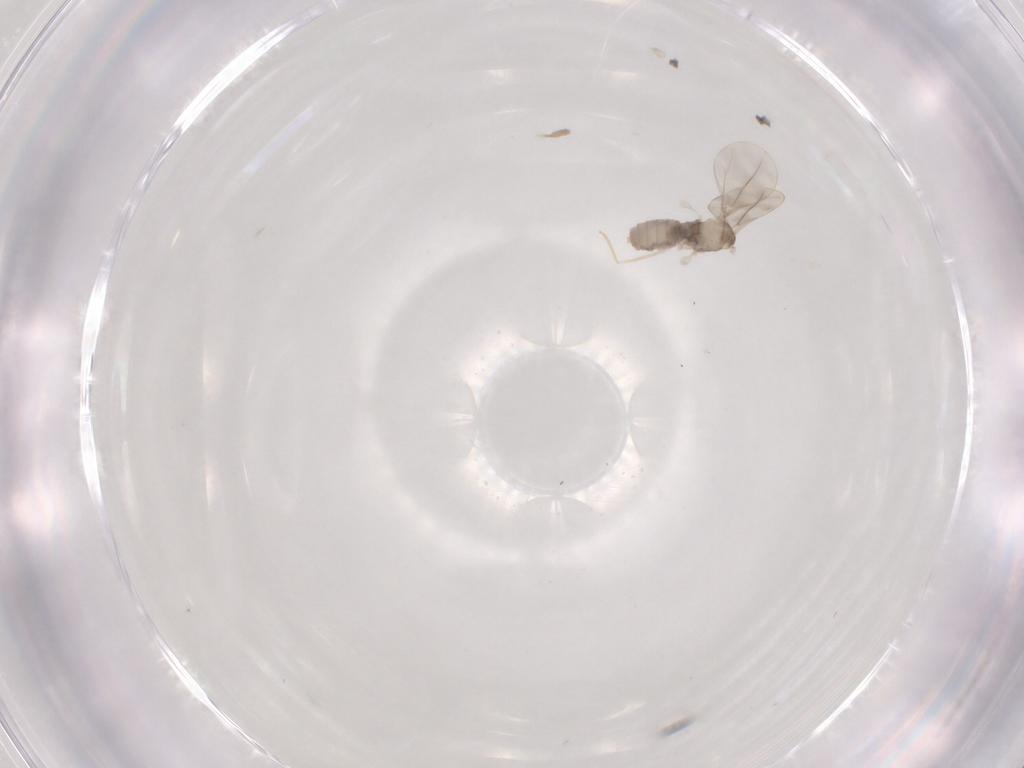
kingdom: Animalia
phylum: Arthropoda
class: Insecta
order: Diptera
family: Cecidomyiidae
